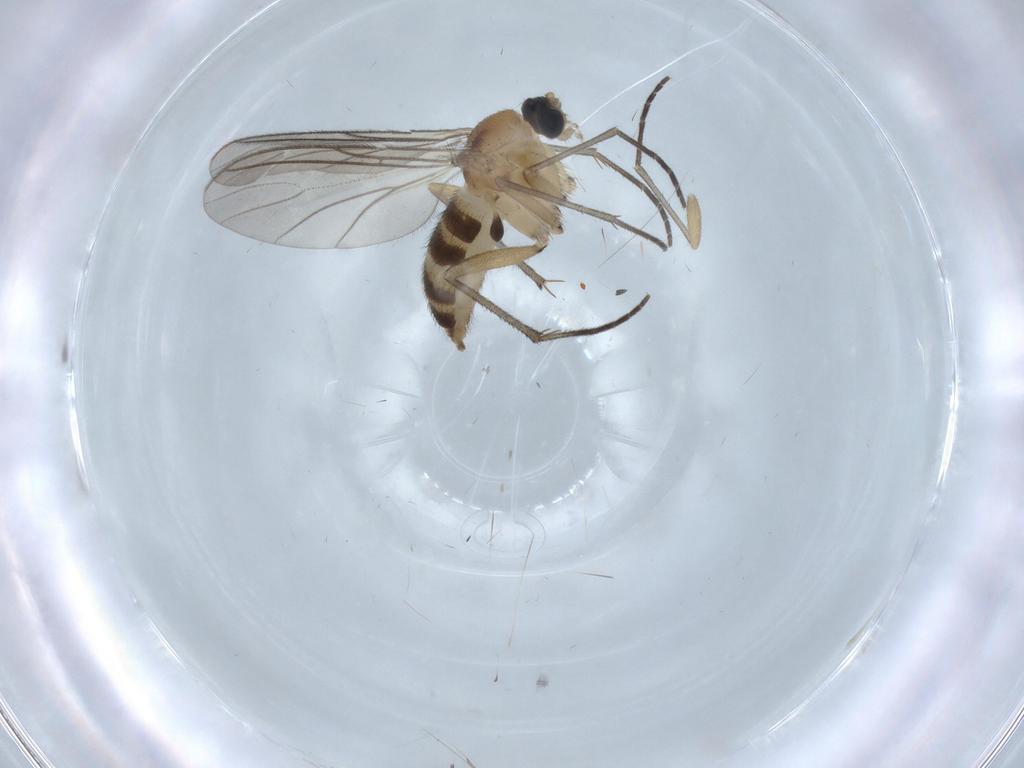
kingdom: Animalia
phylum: Arthropoda
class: Insecta
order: Diptera
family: Sciaridae
